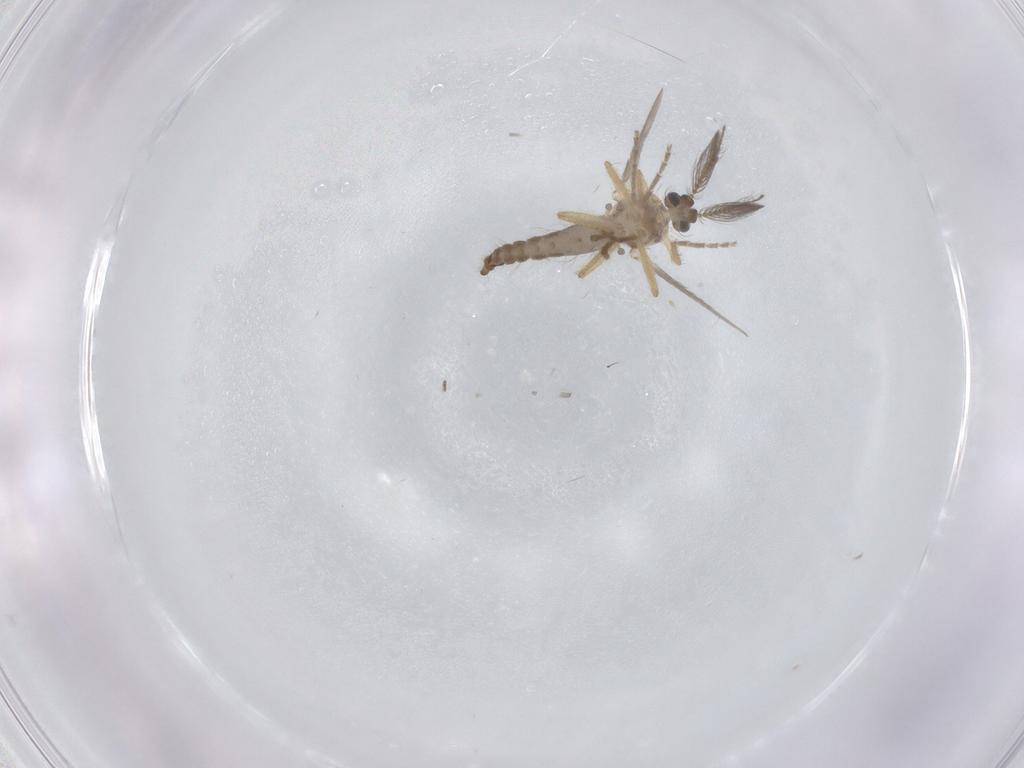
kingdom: Animalia
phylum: Arthropoda
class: Insecta
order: Diptera
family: Ceratopogonidae
